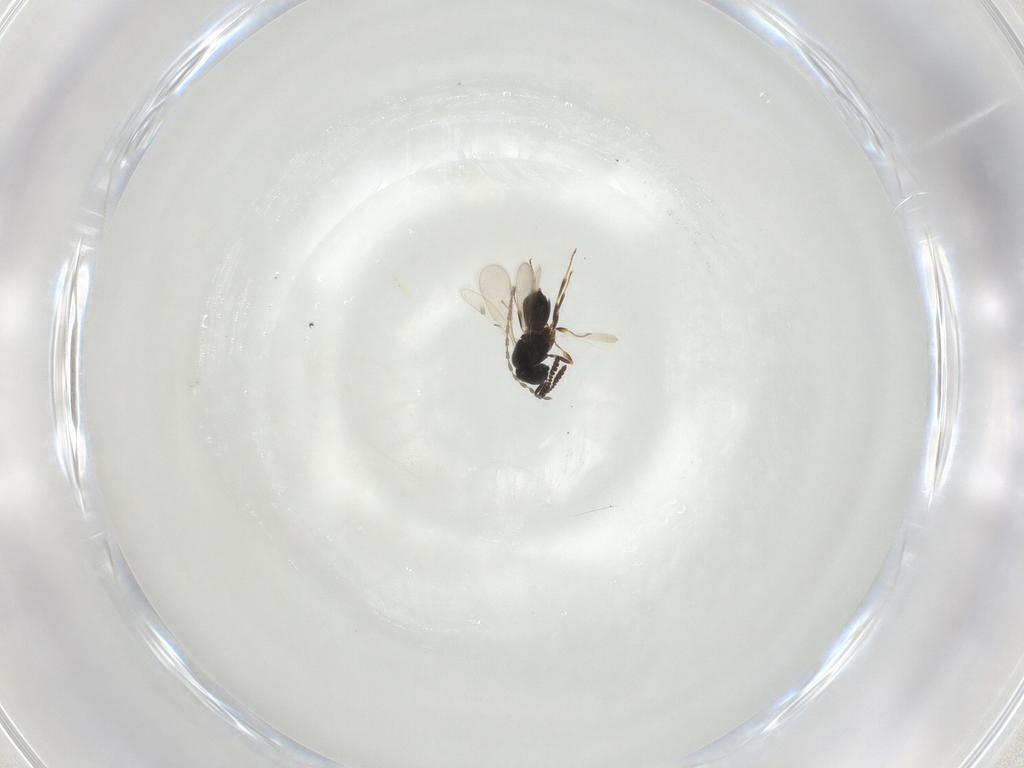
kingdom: Animalia
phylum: Arthropoda
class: Insecta
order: Hymenoptera
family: Scelionidae
